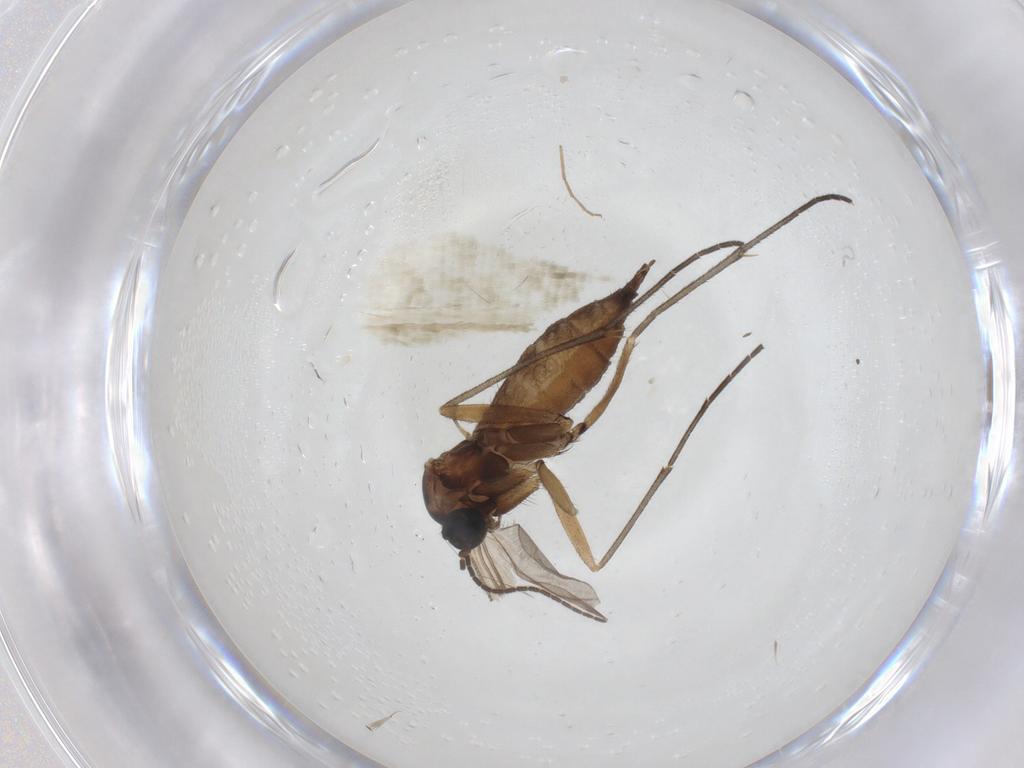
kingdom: Animalia
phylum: Arthropoda
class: Insecta
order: Diptera
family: Sciaridae
